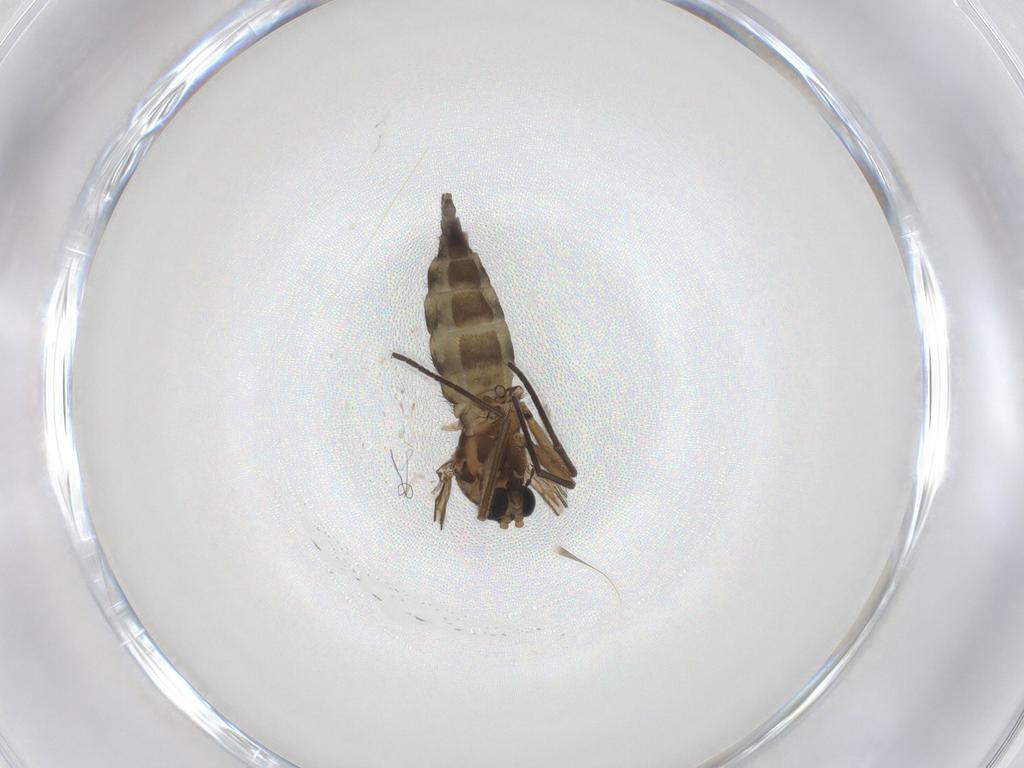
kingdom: Animalia
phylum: Arthropoda
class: Insecta
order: Diptera
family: Sciaridae
